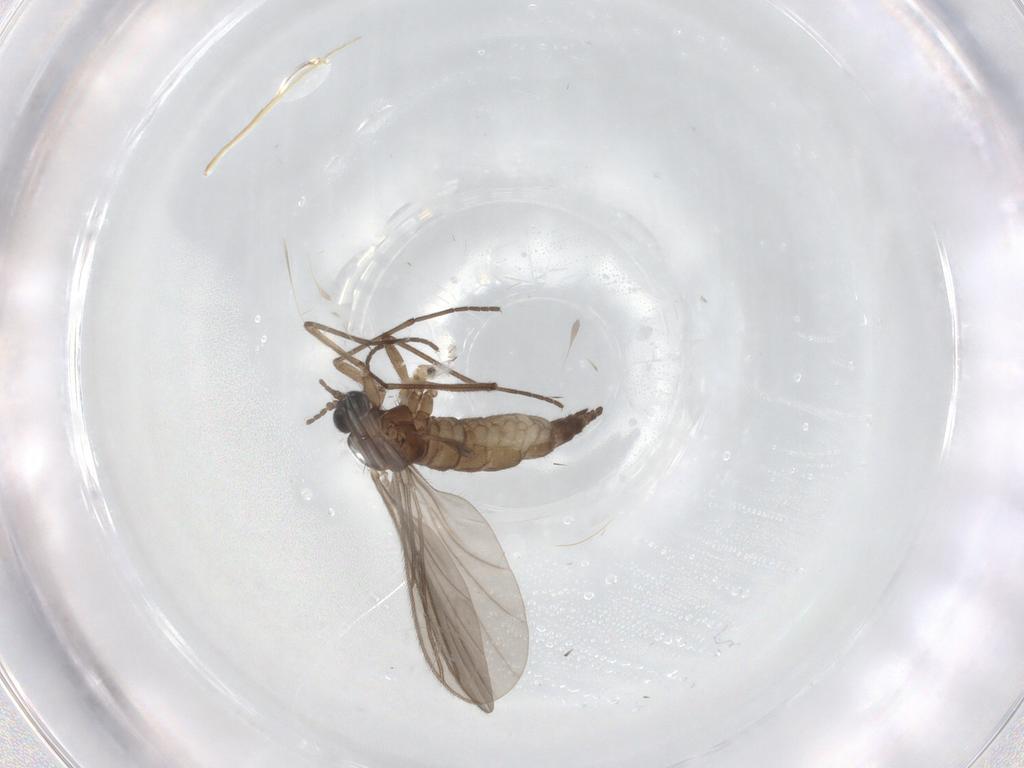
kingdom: Animalia
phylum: Arthropoda
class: Insecta
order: Diptera
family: Sciaridae
